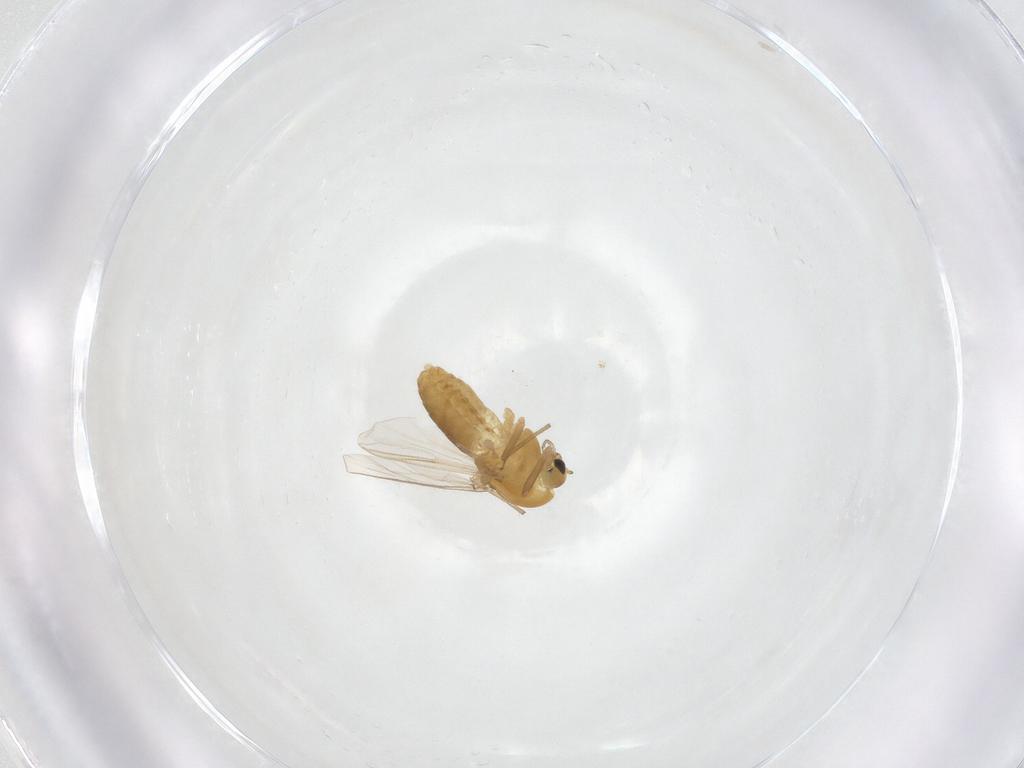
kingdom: Animalia
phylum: Arthropoda
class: Insecta
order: Diptera
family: Chironomidae
